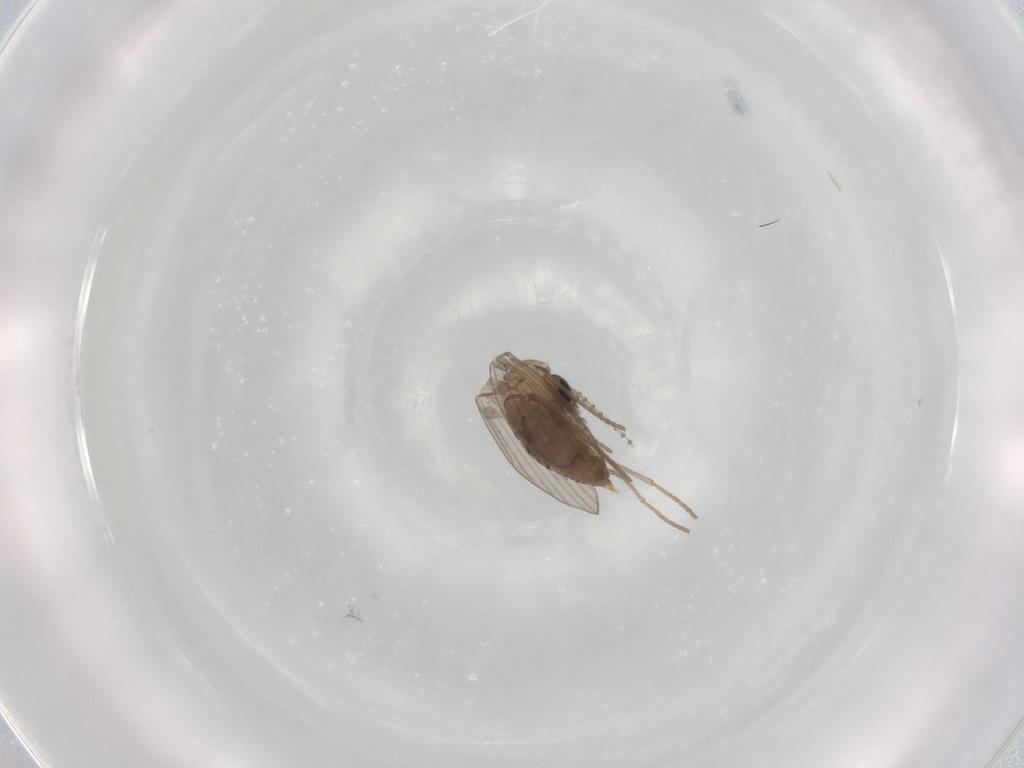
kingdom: Animalia
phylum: Arthropoda
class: Insecta
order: Diptera
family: Psychodidae
